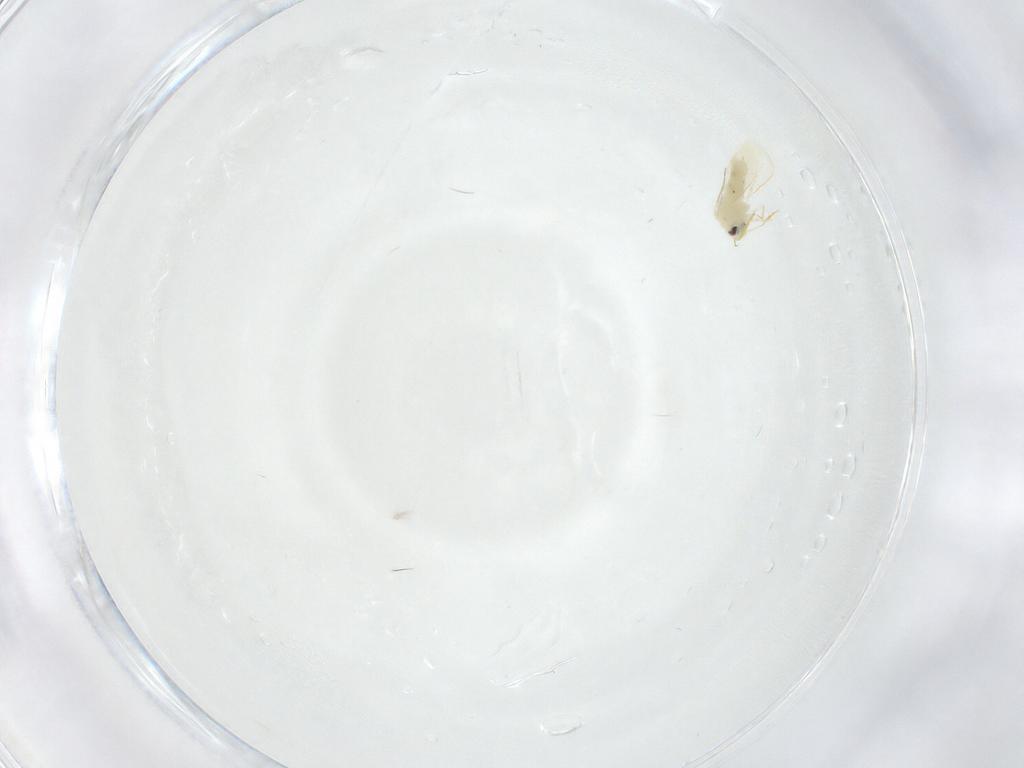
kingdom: Animalia
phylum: Arthropoda
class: Insecta
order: Hemiptera
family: Aleyrodidae
